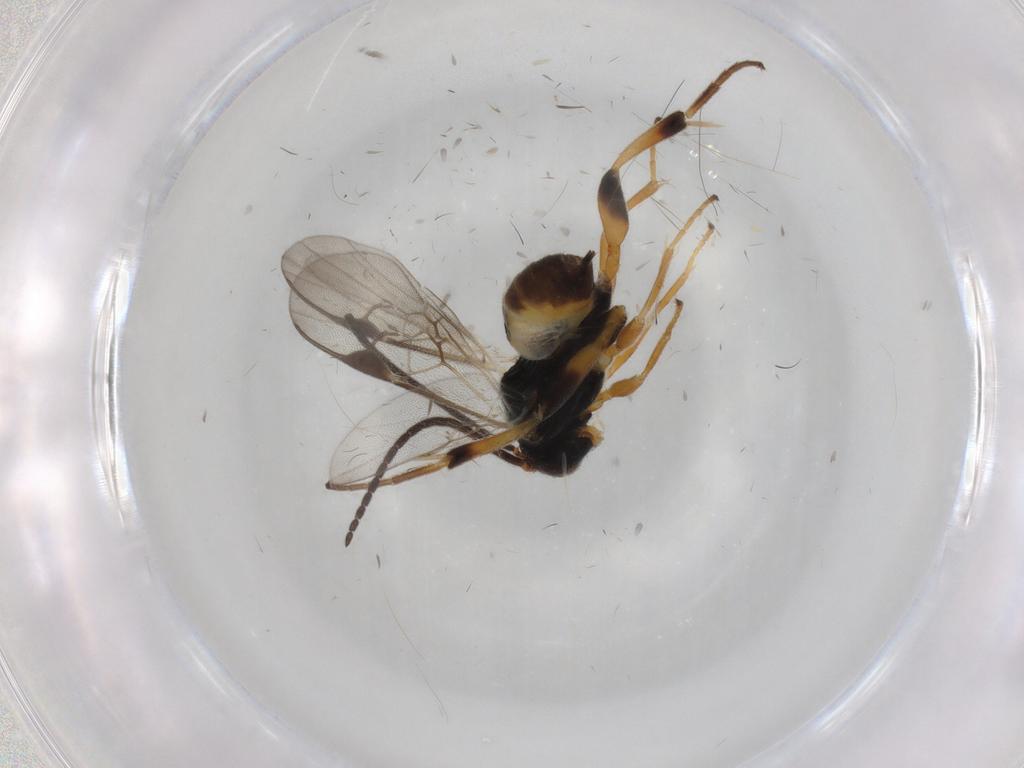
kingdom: Animalia
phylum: Arthropoda
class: Insecta
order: Hymenoptera
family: Braconidae
